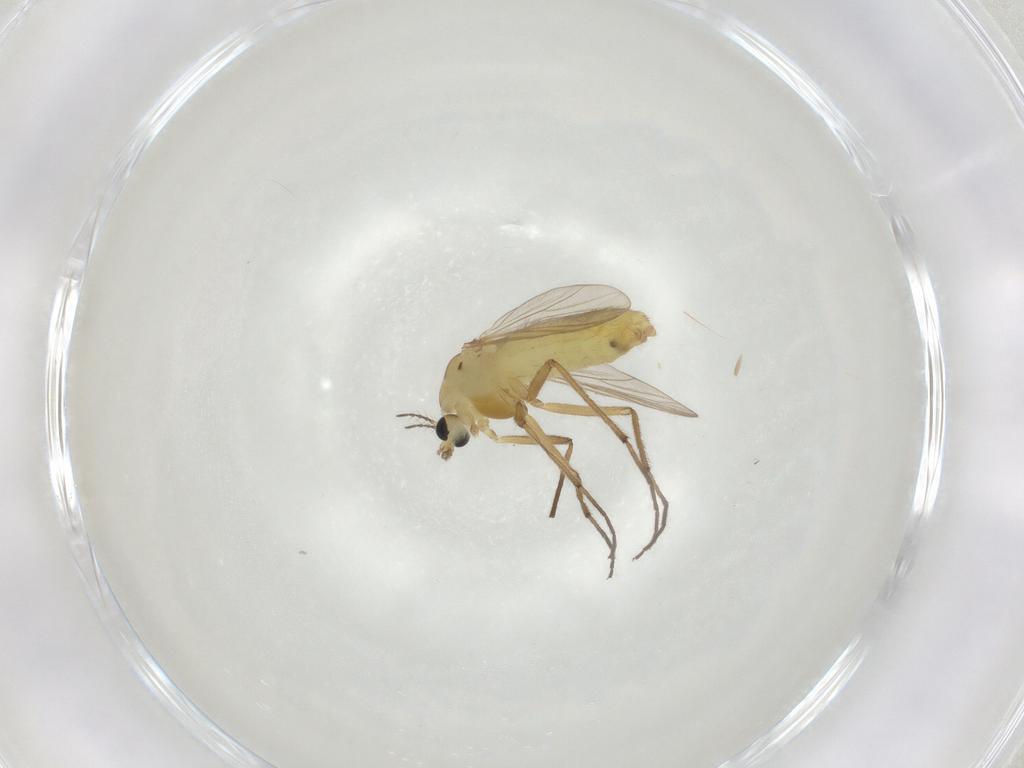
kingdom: Animalia
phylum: Arthropoda
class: Insecta
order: Diptera
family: Chironomidae
